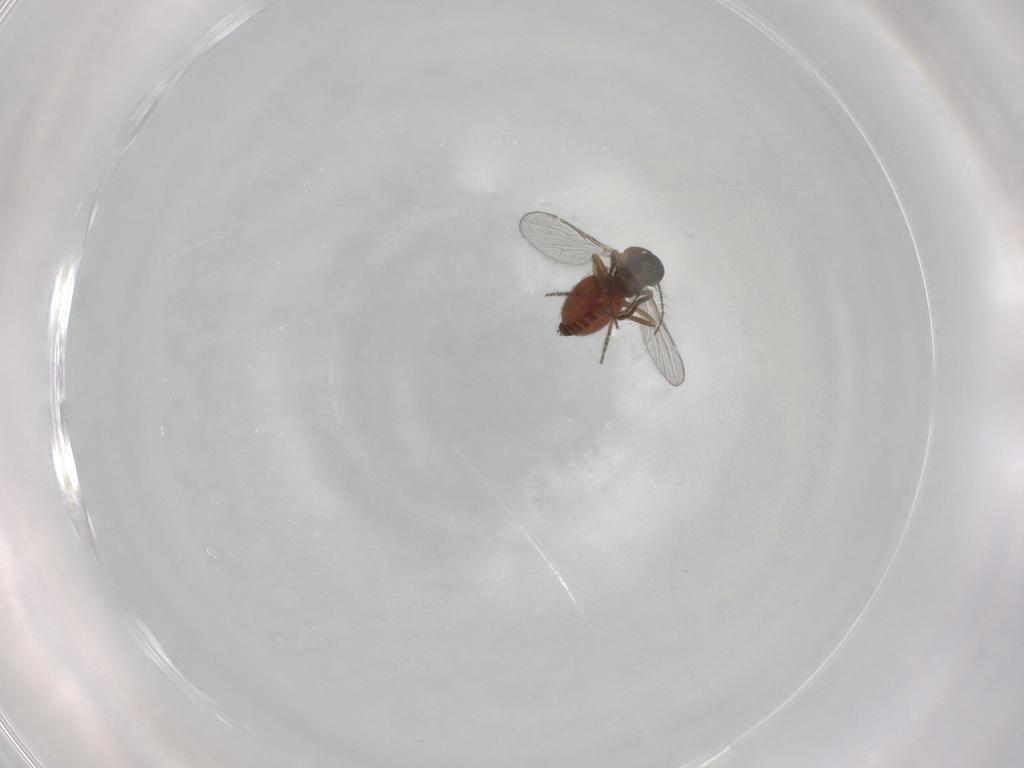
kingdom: Animalia
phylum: Arthropoda
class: Insecta
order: Diptera
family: Ceratopogonidae
